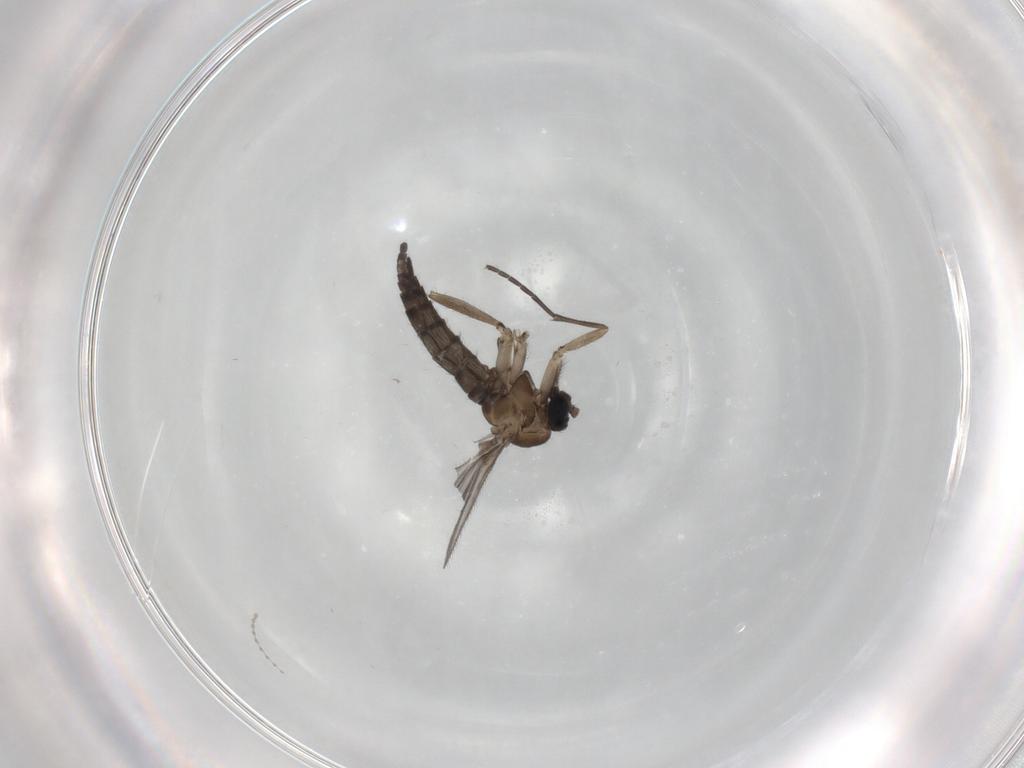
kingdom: Animalia
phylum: Arthropoda
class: Insecta
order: Diptera
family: Sciaridae
